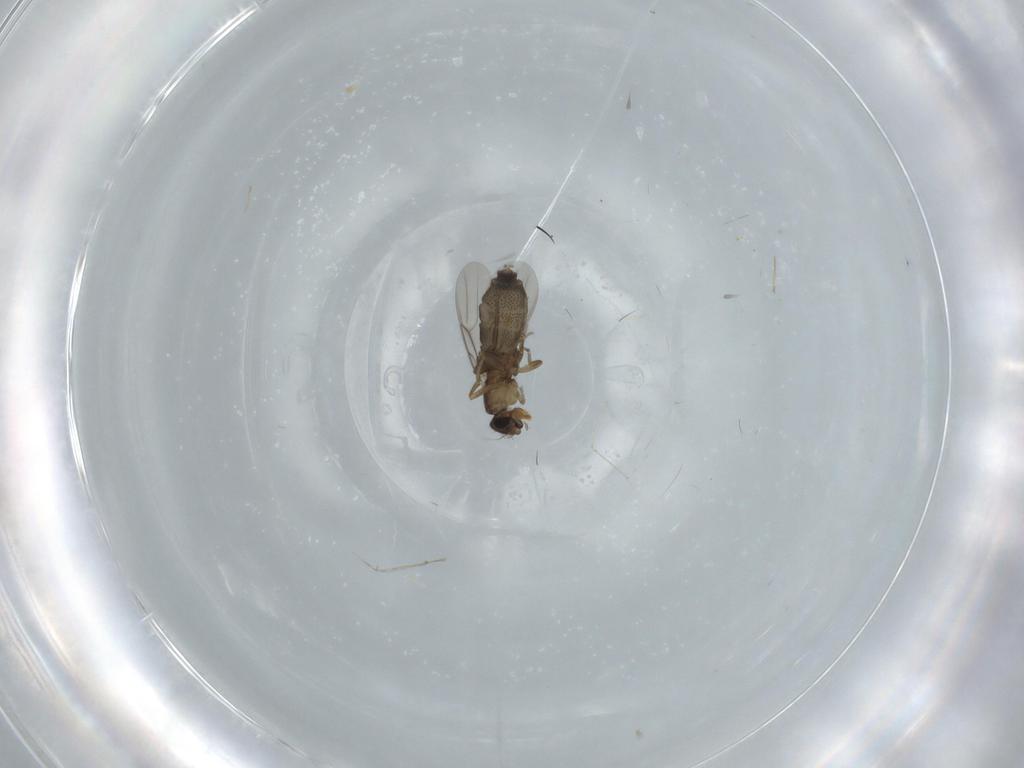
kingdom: Animalia
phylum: Arthropoda
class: Insecta
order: Diptera
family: Phoridae
